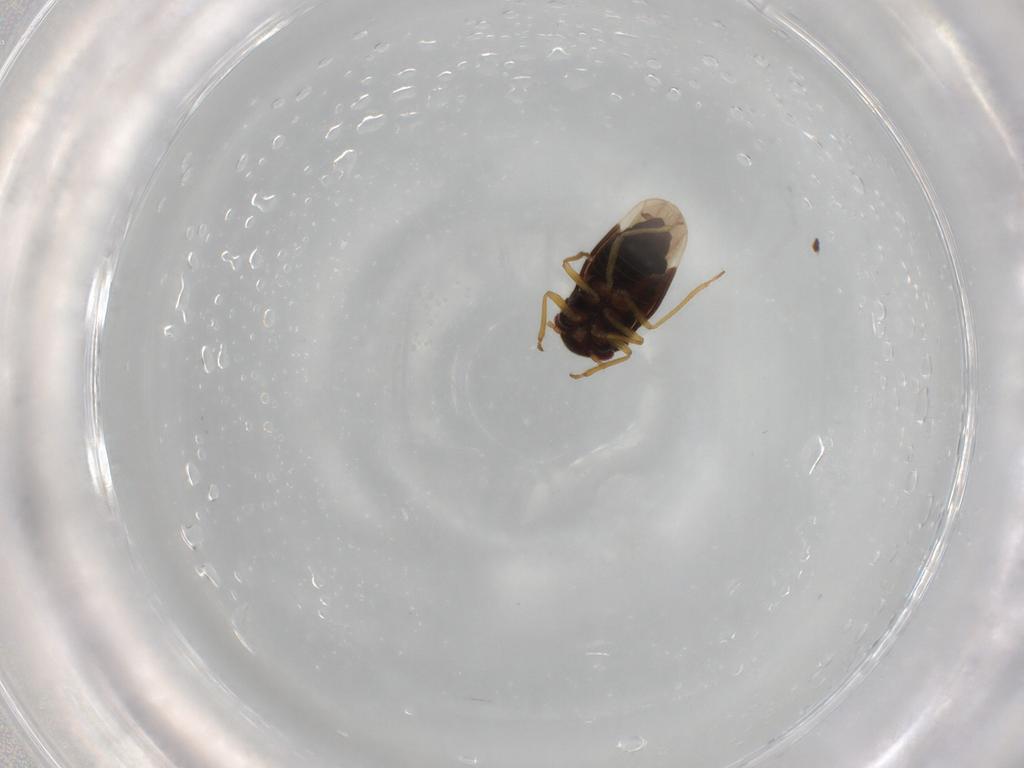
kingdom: Animalia
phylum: Arthropoda
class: Insecta
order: Hemiptera
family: Schizopteridae
